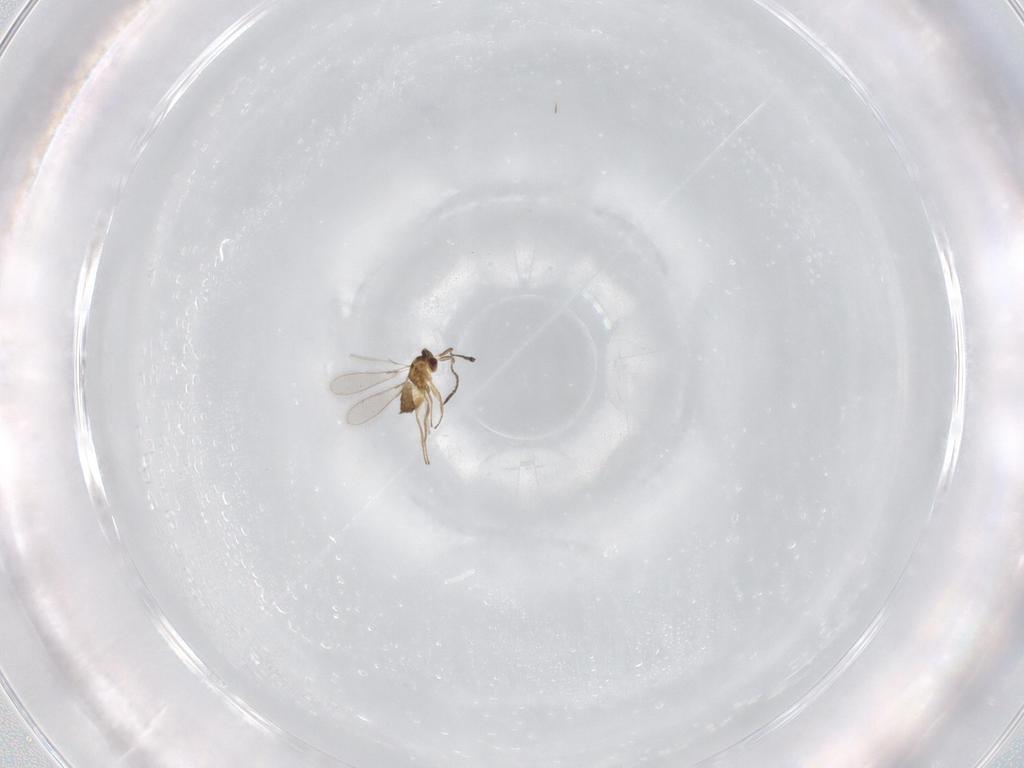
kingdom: Animalia
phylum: Arthropoda
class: Insecta
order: Hymenoptera
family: Mymaridae
